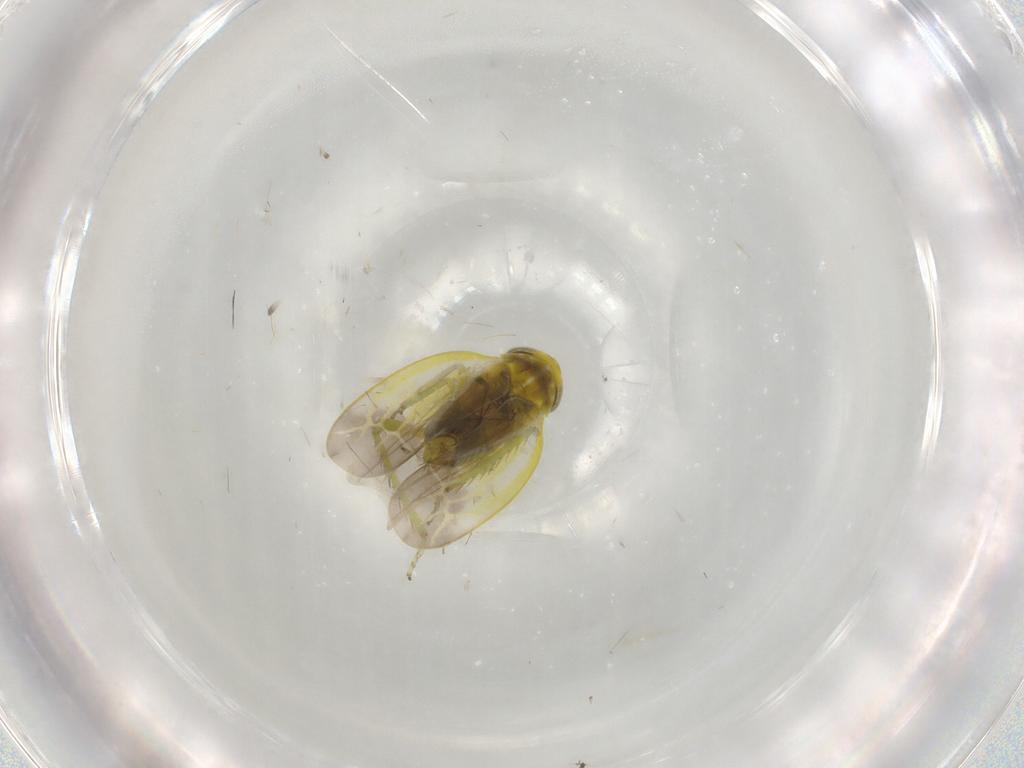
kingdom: Animalia
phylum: Arthropoda
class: Insecta
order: Hemiptera
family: Cicadellidae
